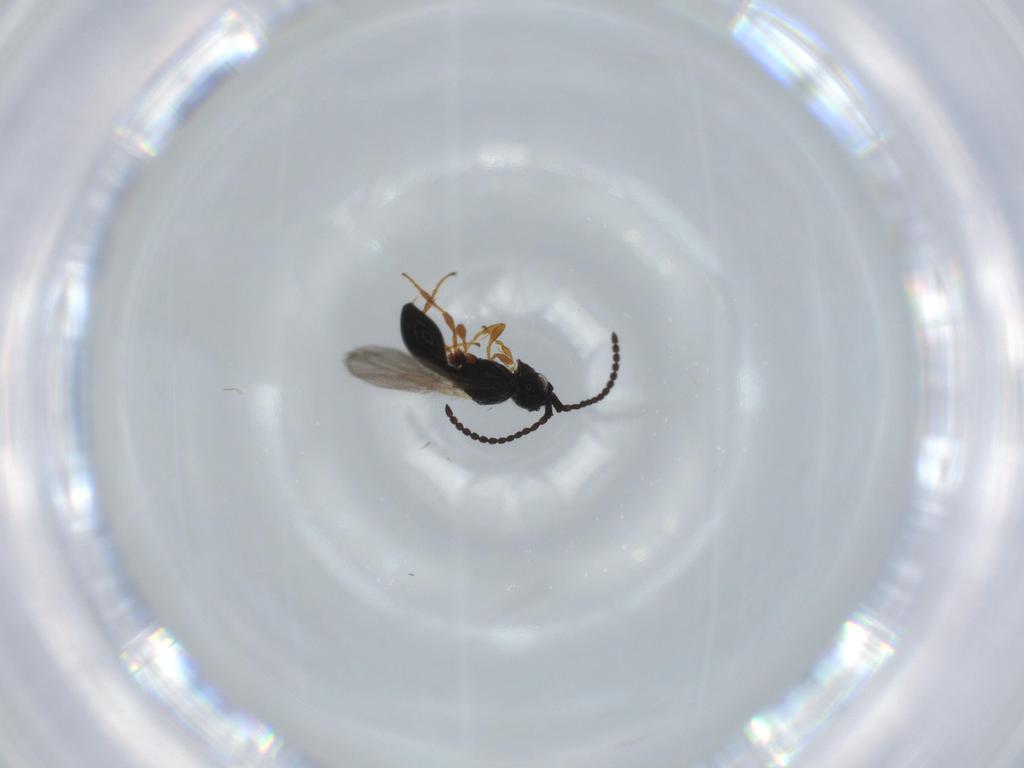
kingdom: Animalia
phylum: Arthropoda
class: Insecta
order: Hymenoptera
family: Diapriidae
